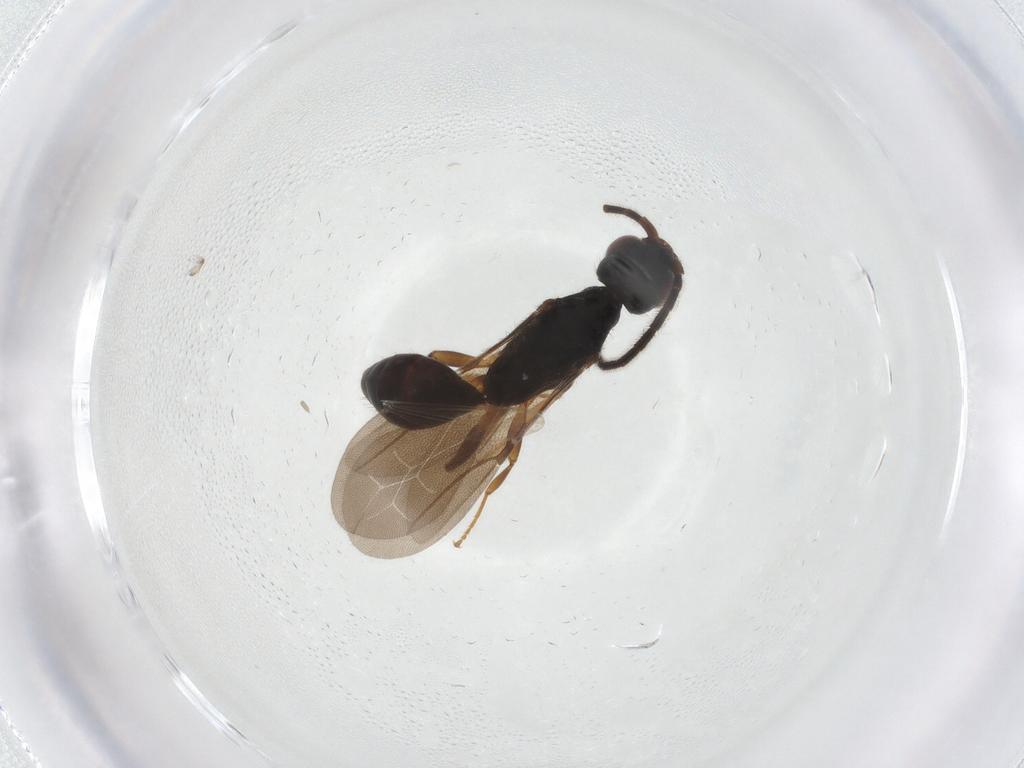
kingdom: Animalia
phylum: Arthropoda
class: Insecta
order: Hymenoptera
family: Bethylidae
